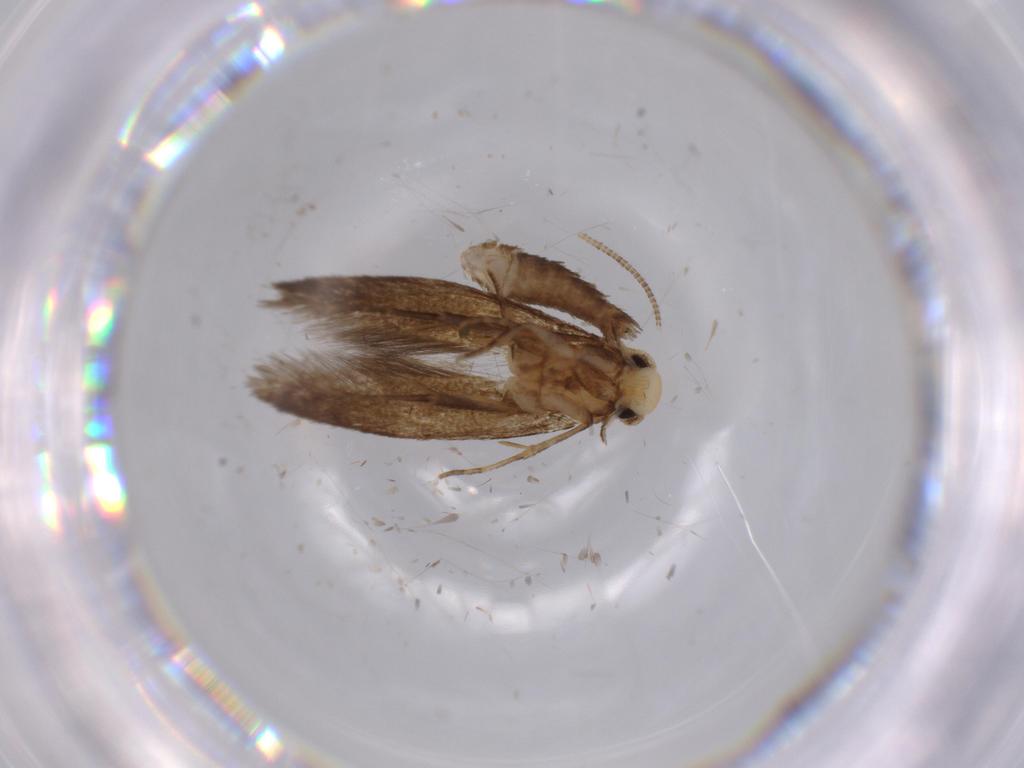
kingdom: Animalia
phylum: Arthropoda
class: Insecta
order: Lepidoptera
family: Tineidae
